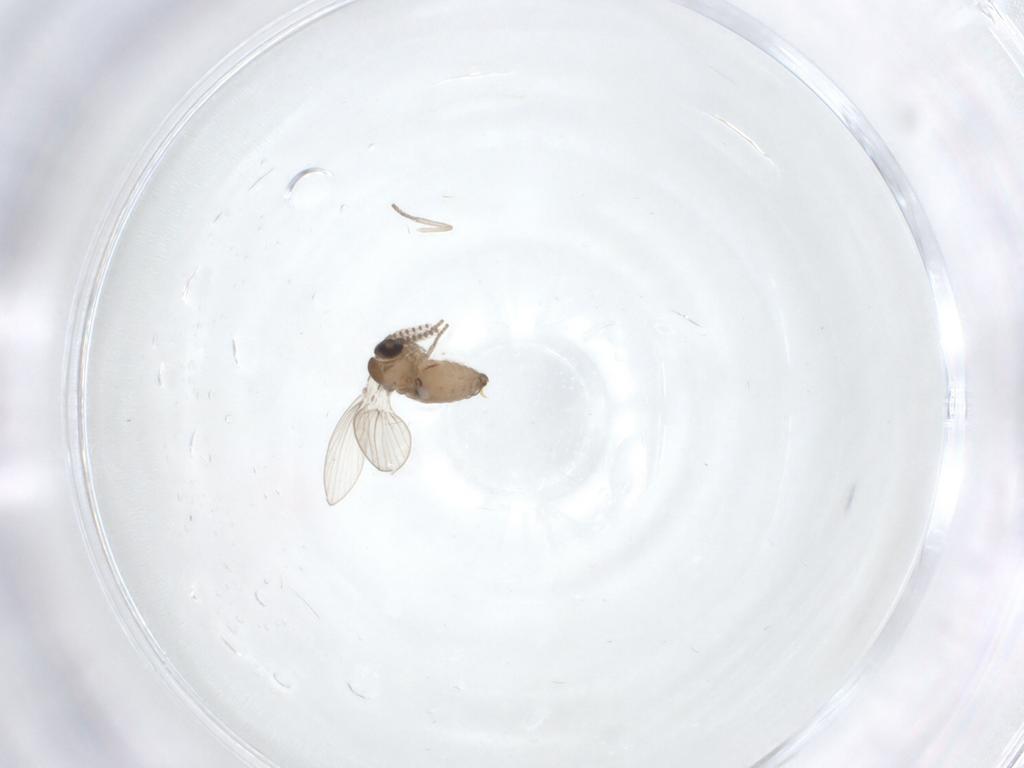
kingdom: Animalia
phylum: Arthropoda
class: Insecta
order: Diptera
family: Psychodidae
